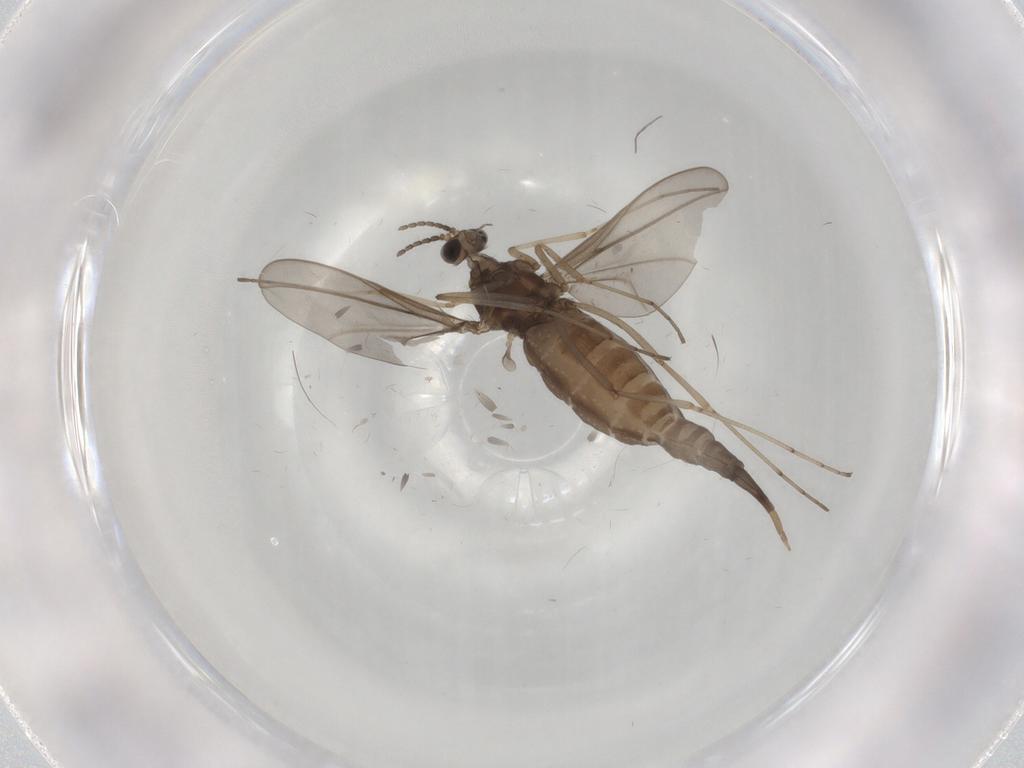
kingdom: Animalia
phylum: Arthropoda
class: Insecta
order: Diptera
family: Cecidomyiidae
